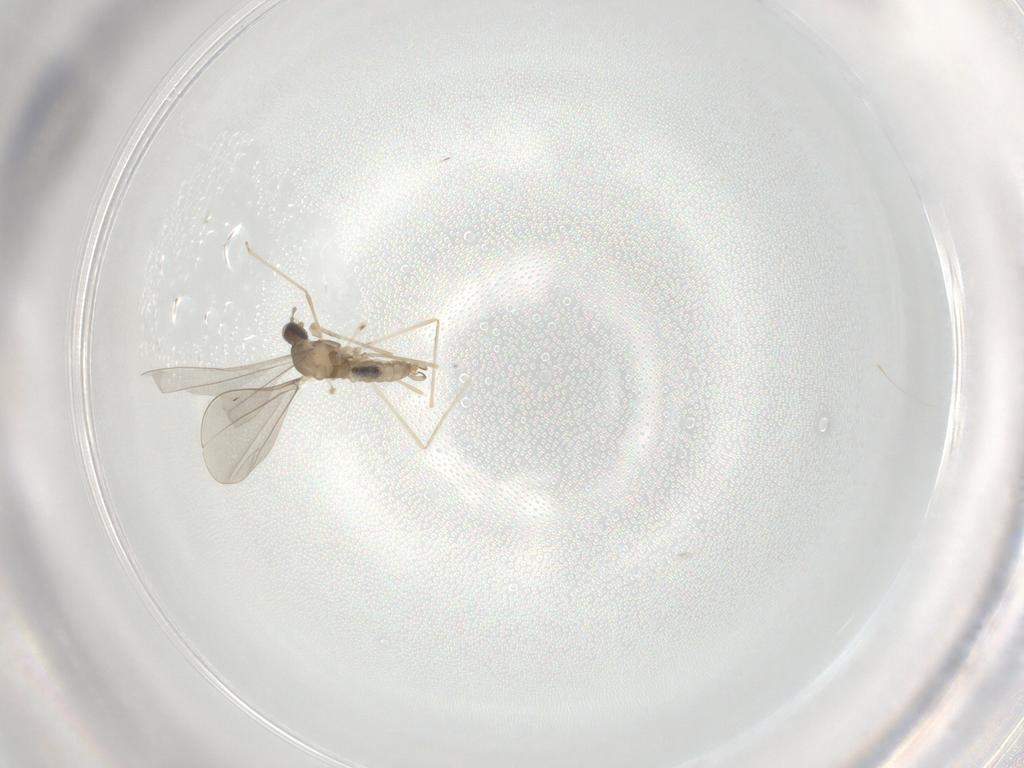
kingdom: Animalia
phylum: Arthropoda
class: Insecta
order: Diptera
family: Cecidomyiidae
